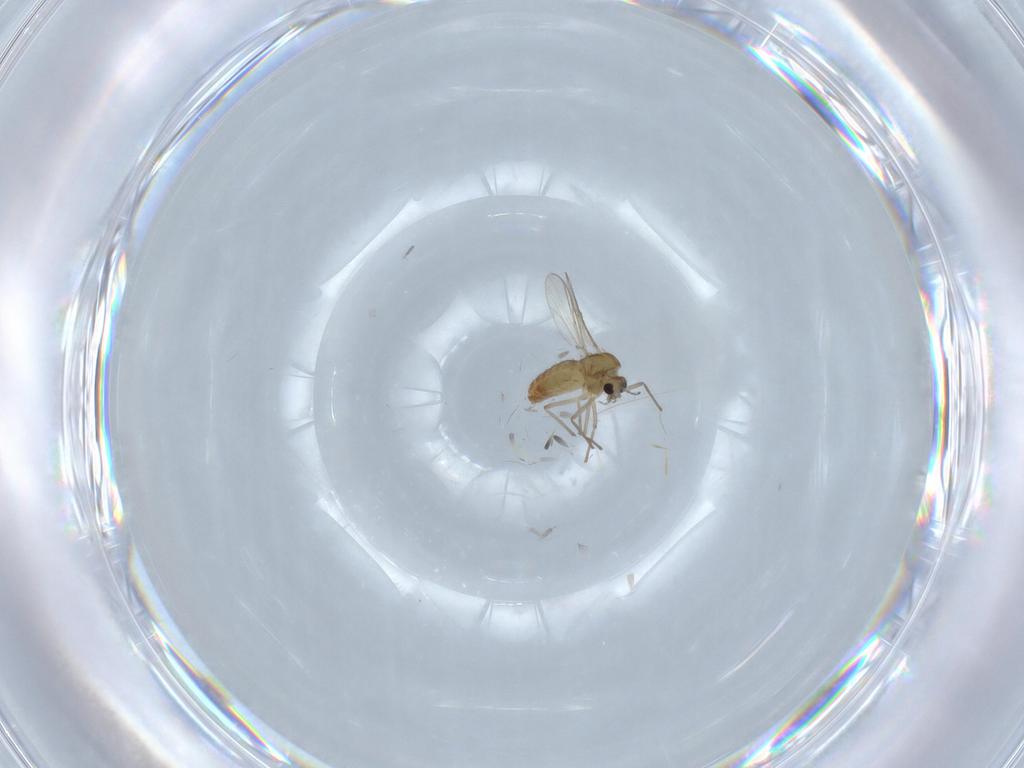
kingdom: Animalia
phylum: Arthropoda
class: Insecta
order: Diptera
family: Chironomidae
